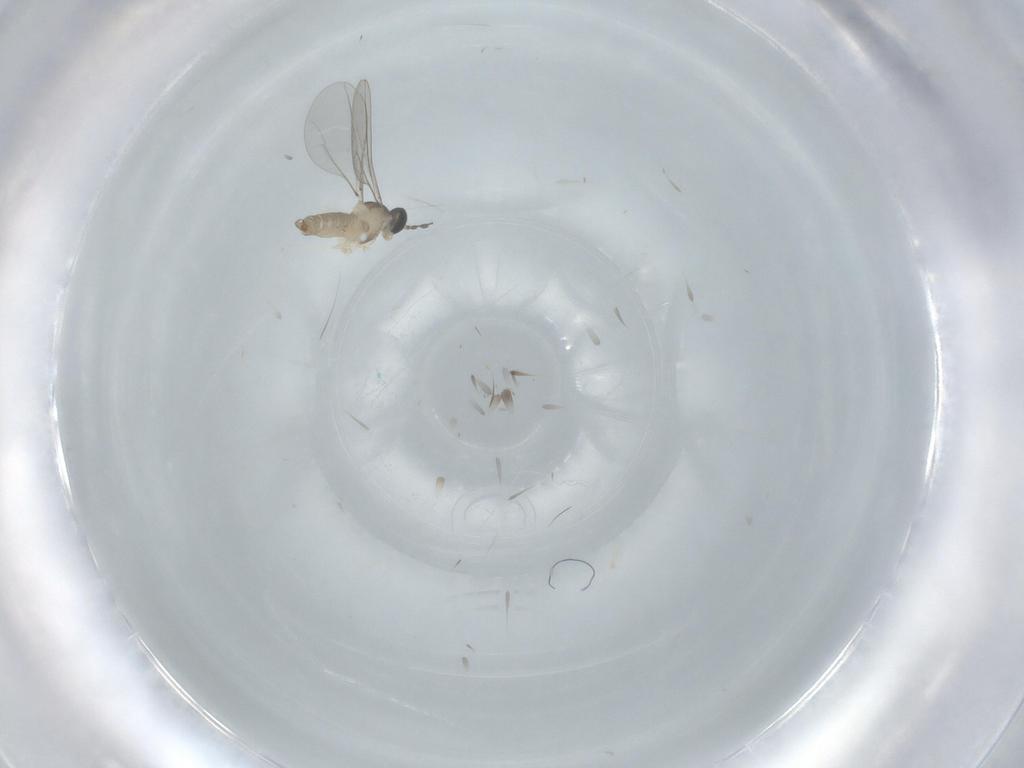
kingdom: Animalia
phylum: Arthropoda
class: Insecta
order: Diptera
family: Cecidomyiidae
